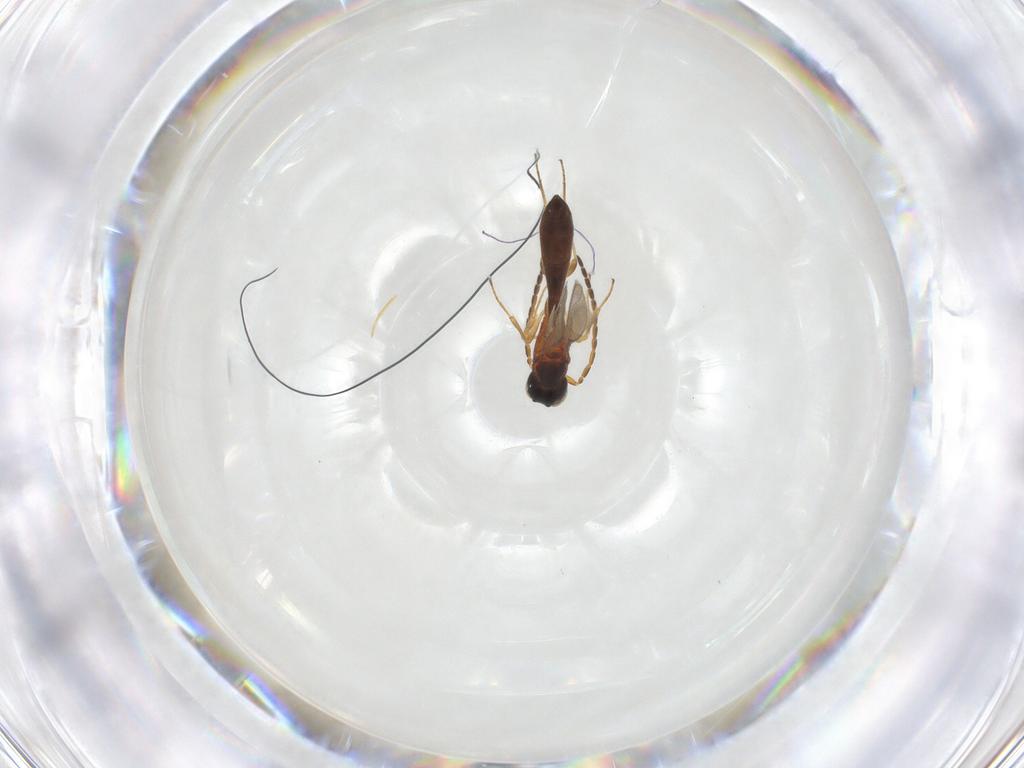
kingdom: Animalia
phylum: Arthropoda
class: Insecta
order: Hymenoptera
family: Scelionidae
